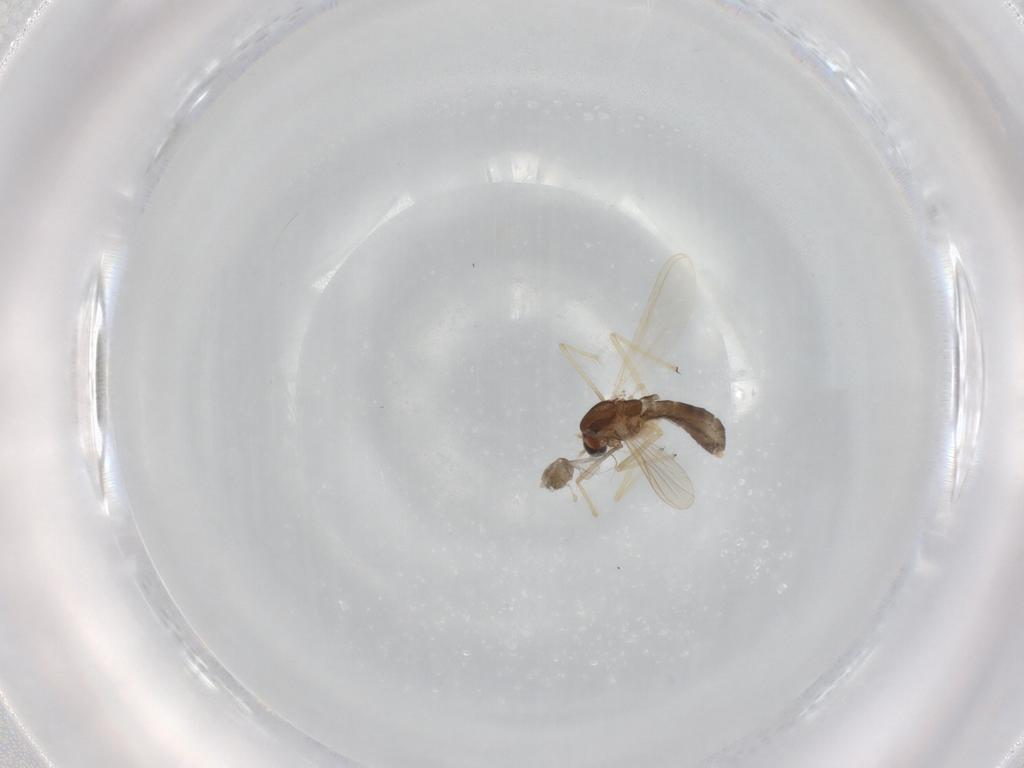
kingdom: Animalia
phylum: Arthropoda
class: Insecta
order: Diptera
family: Chironomidae
